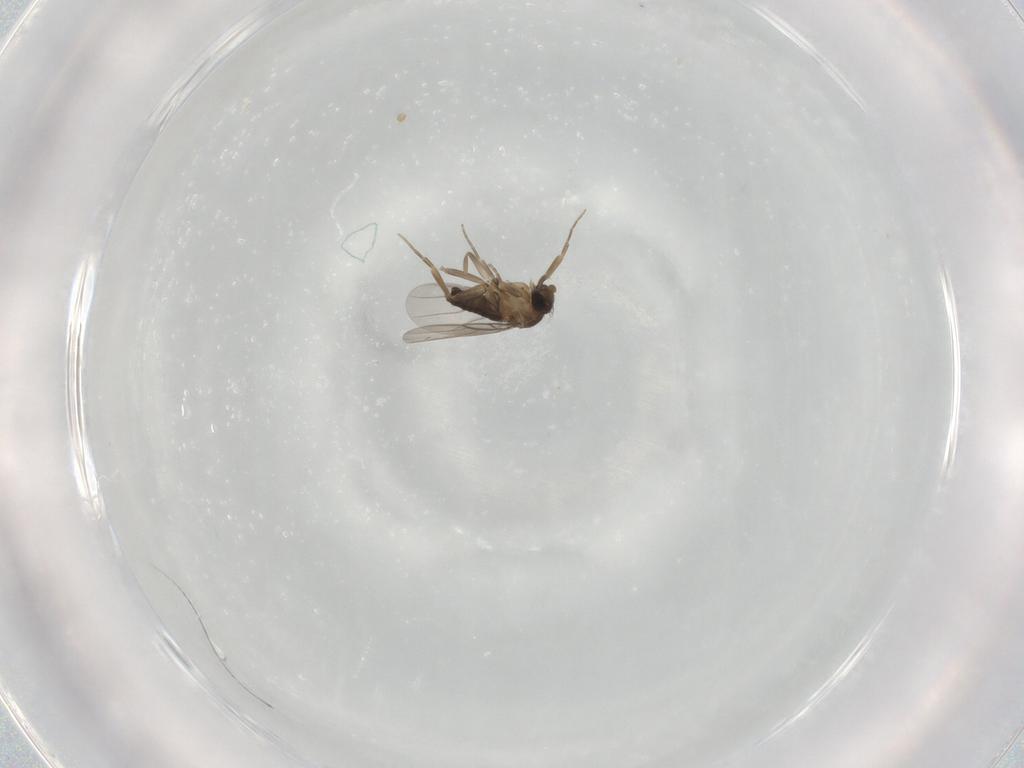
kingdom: Animalia
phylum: Arthropoda
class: Insecta
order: Diptera
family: Phoridae
